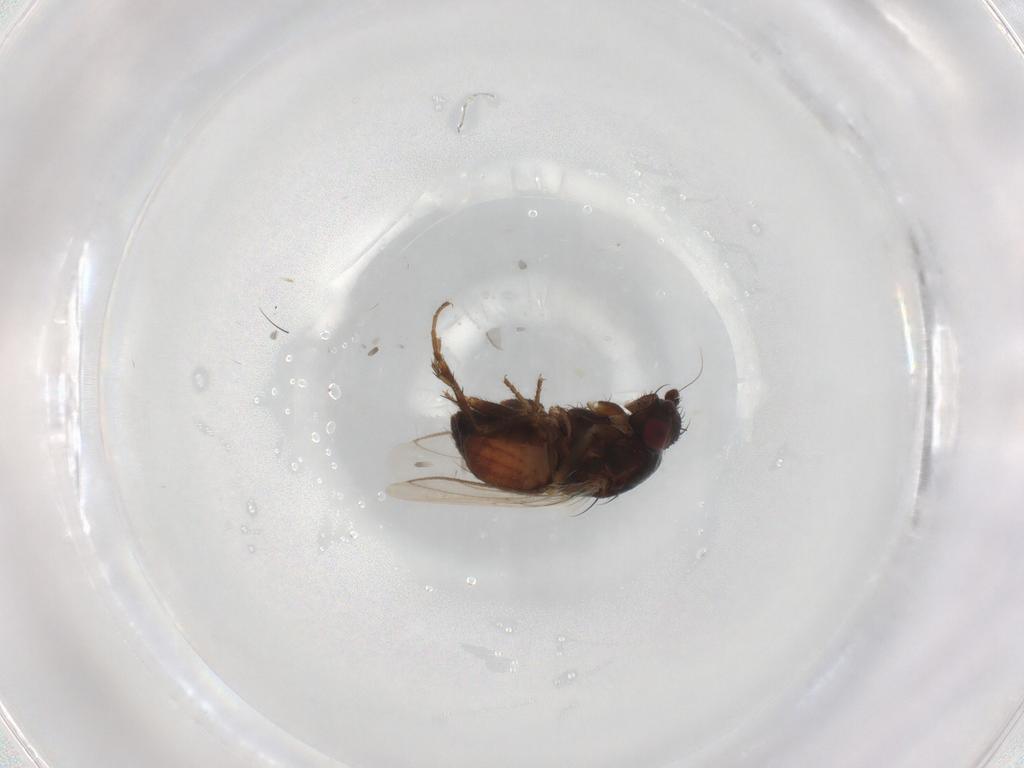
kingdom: Animalia
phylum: Arthropoda
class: Insecta
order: Diptera
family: Sphaeroceridae
